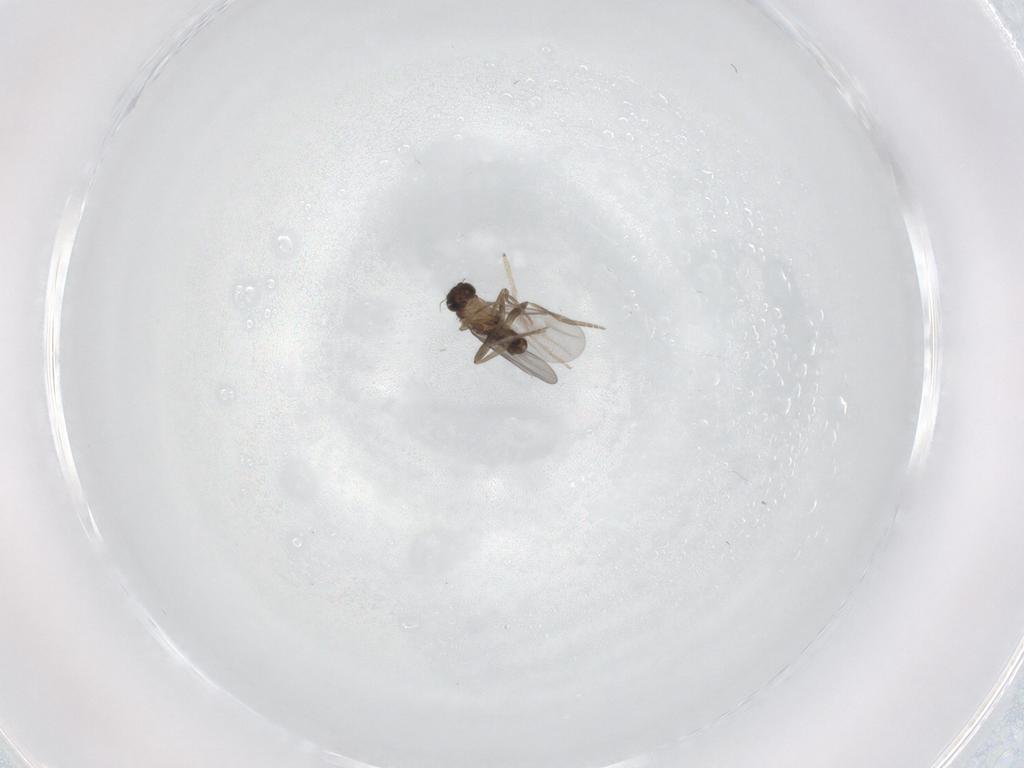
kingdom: Animalia
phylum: Arthropoda
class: Insecta
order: Diptera
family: Chironomidae
